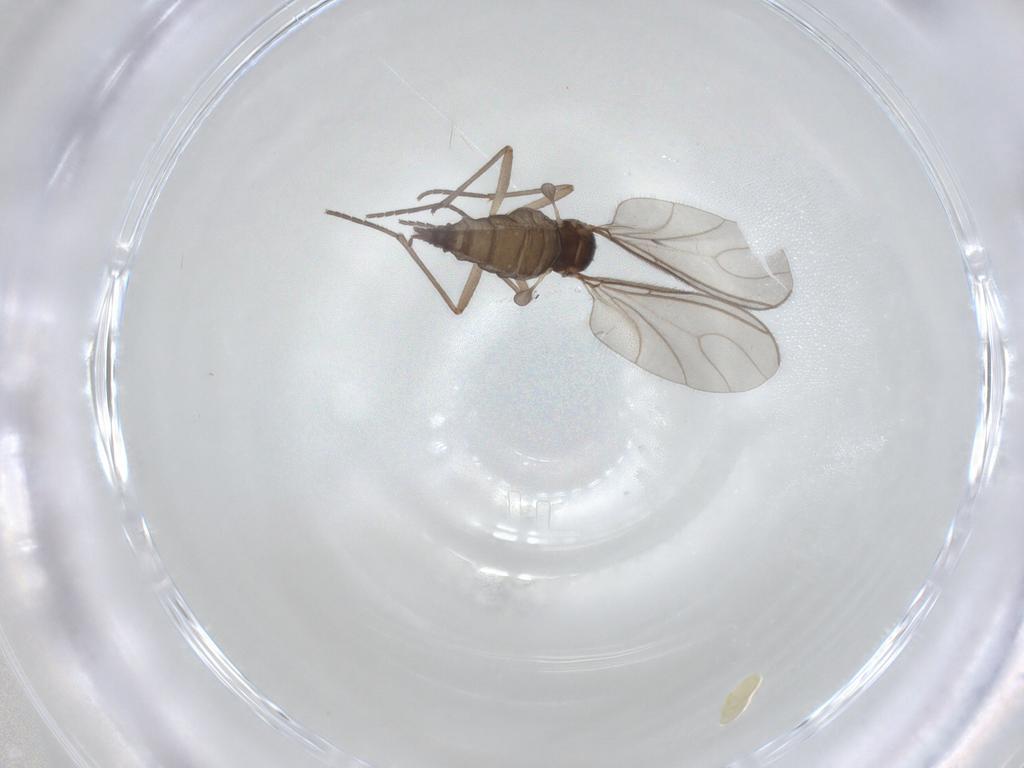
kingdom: Animalia
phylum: Arthropoda
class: Insecta
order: Diptera
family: Sciaridae
